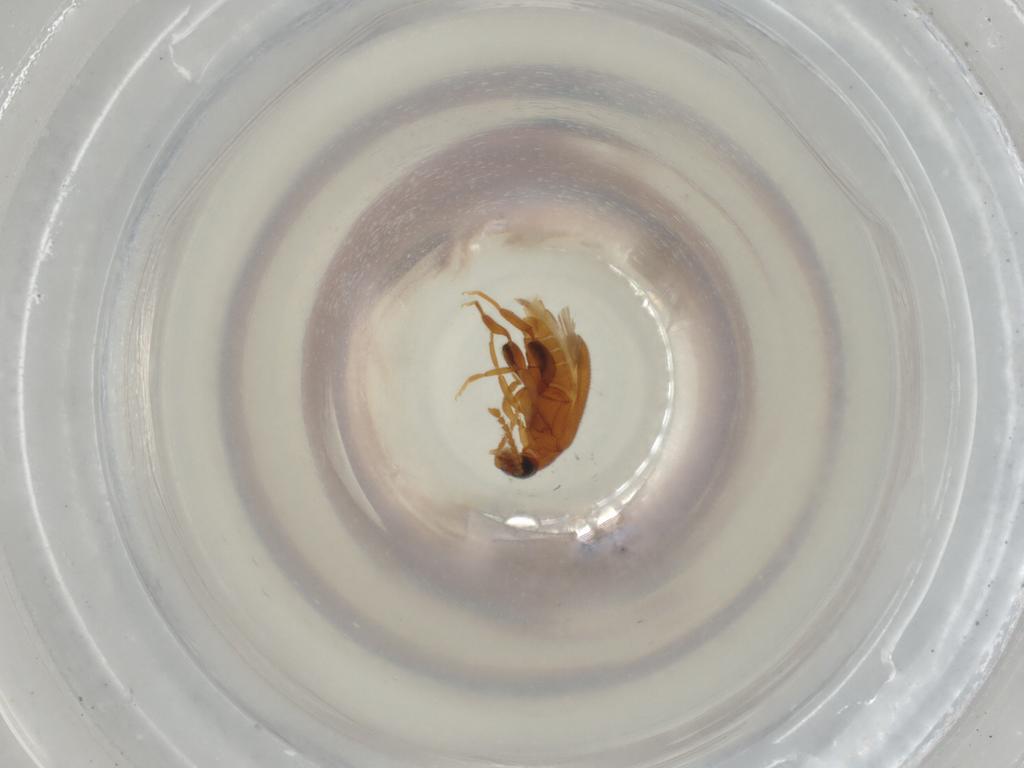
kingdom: Animalia
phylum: Arthropoda
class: Insecta
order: Coleoptera
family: Aderidae
